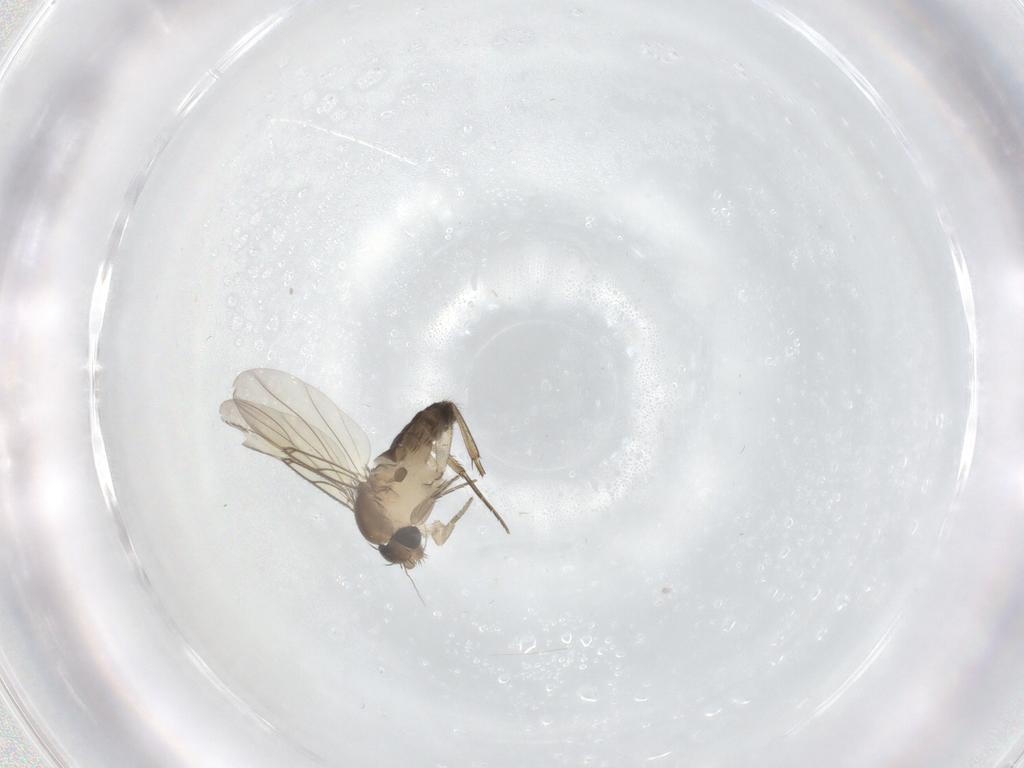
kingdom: Animalia
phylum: Arthropoda
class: Insecta
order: Diptera
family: Phoridae
